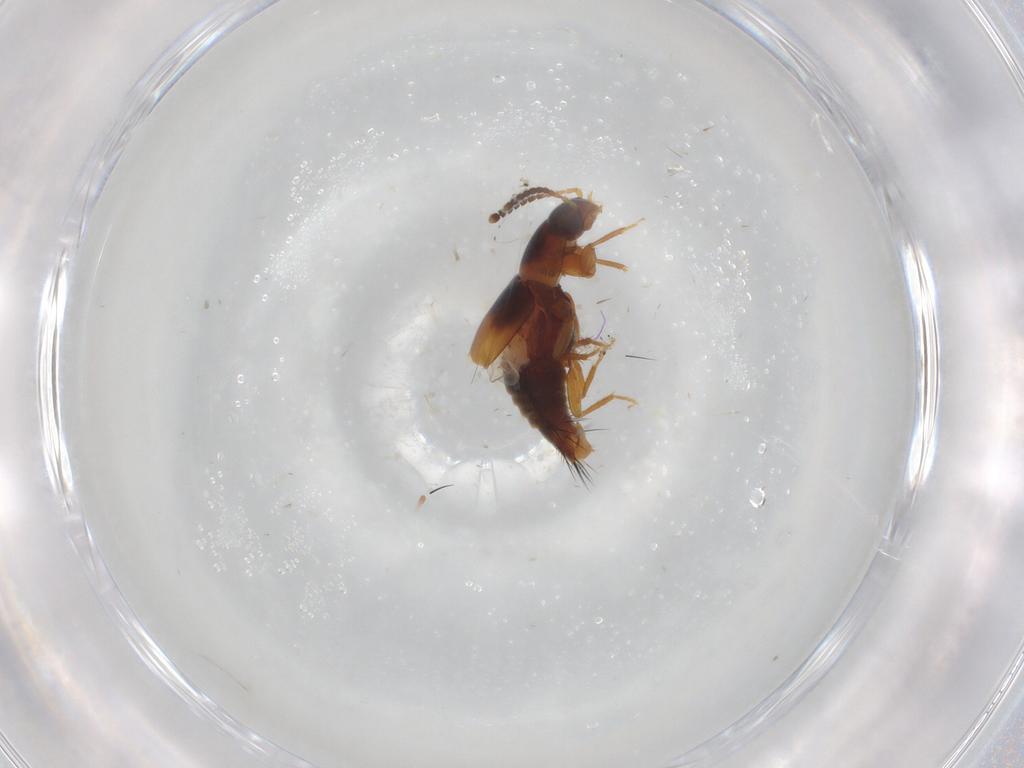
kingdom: Animalia
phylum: Arthropoda
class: Insecta
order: Coleoptera
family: Staphylinidae
